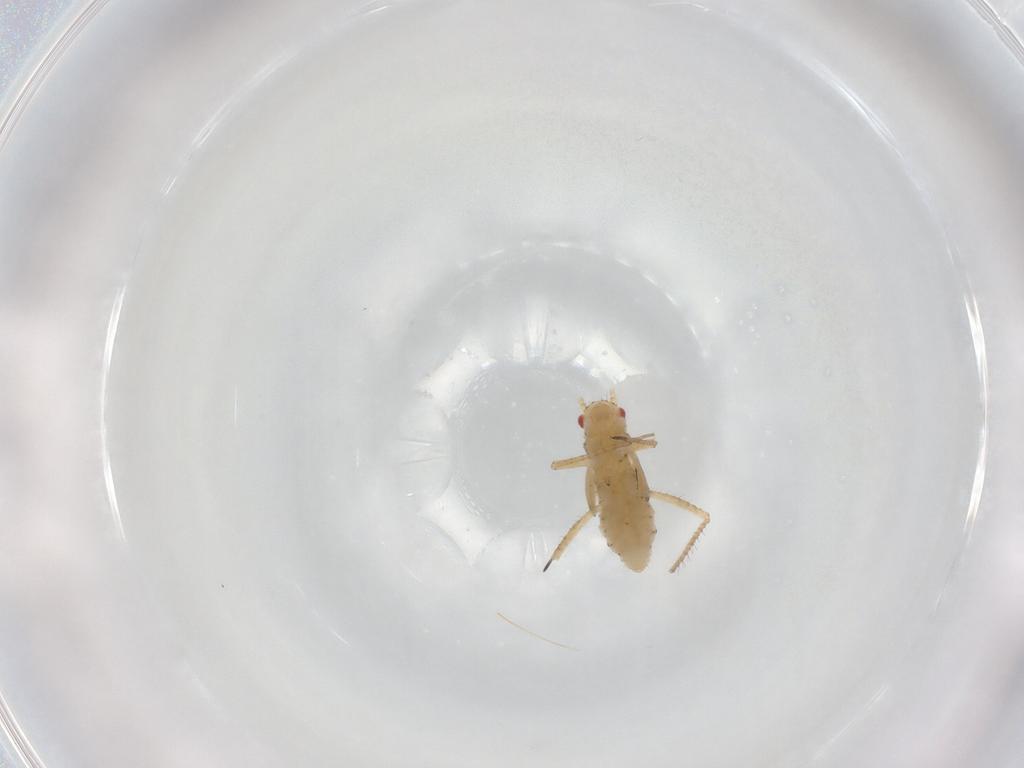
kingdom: Animalia
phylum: Arthropoda
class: Insecta
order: Hemiptera
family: Aphididae
